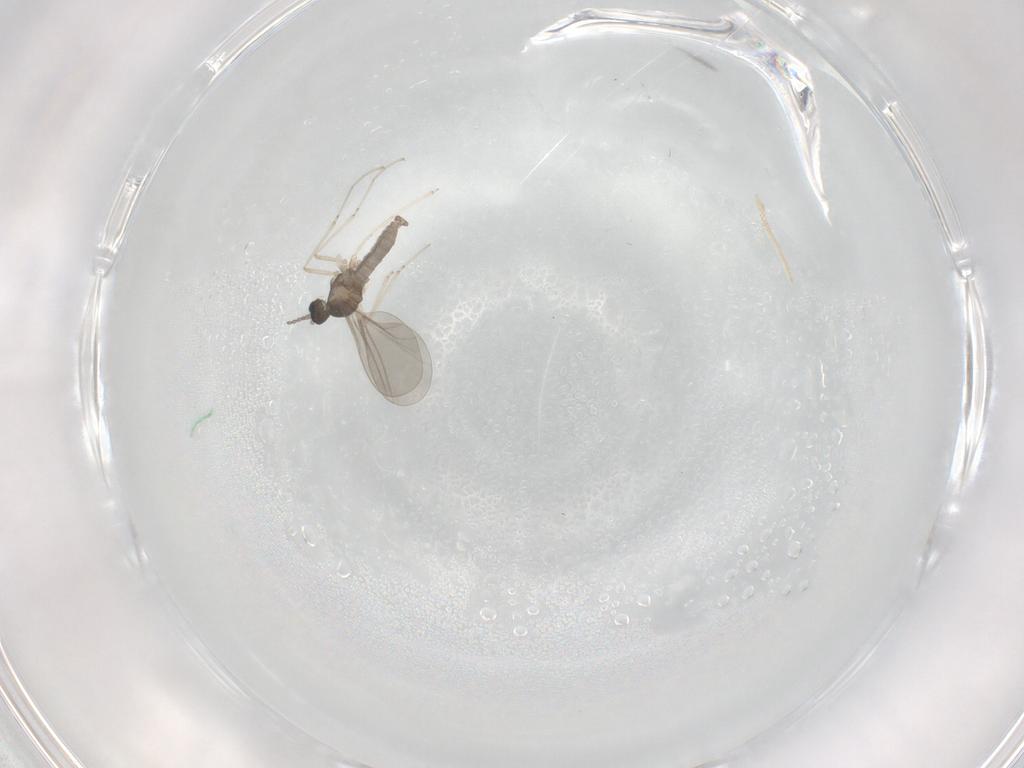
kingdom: Animalia
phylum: Arthropoda
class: Insecta
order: Diptera
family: Cecidomyiidae
